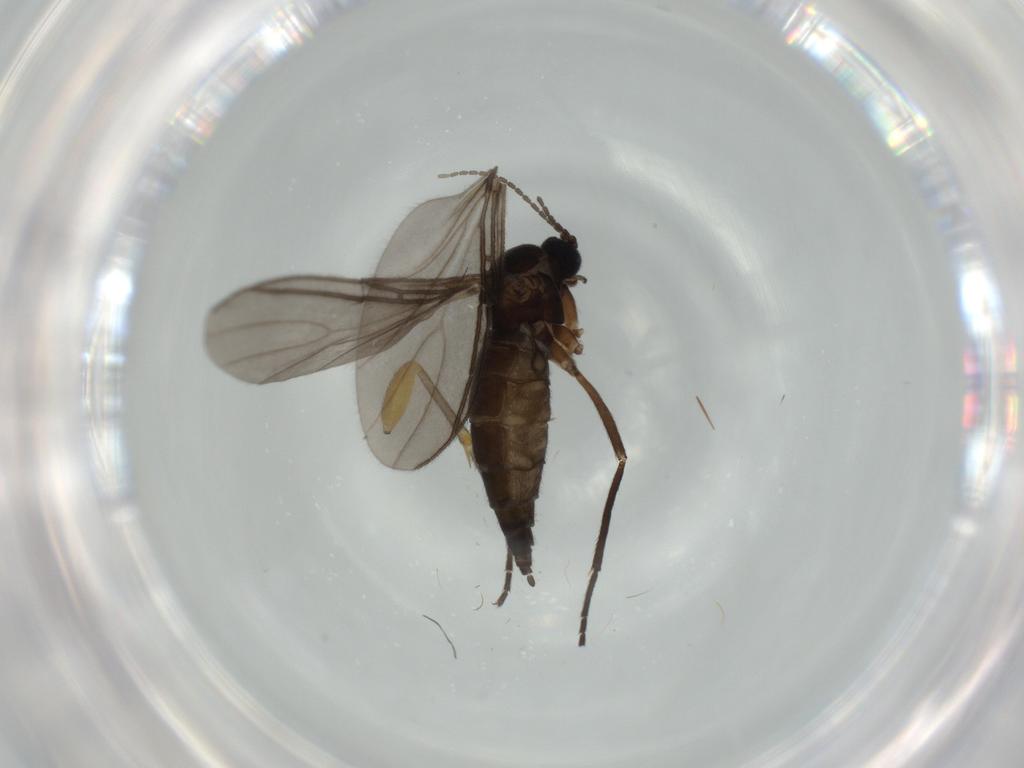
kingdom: Animalia
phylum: Arthropoda
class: Insecta
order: Diptera
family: Mycetophilidae
